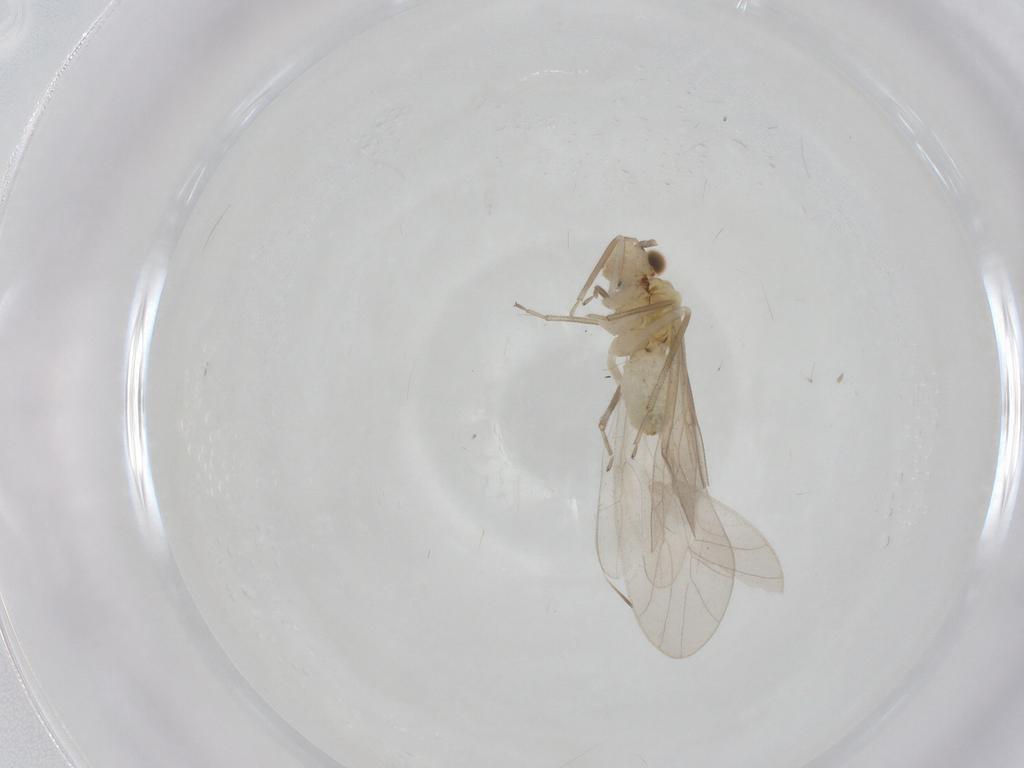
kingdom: Animalia
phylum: Arthropoda
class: Insecta
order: Psocodea
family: Caeciliusidae
